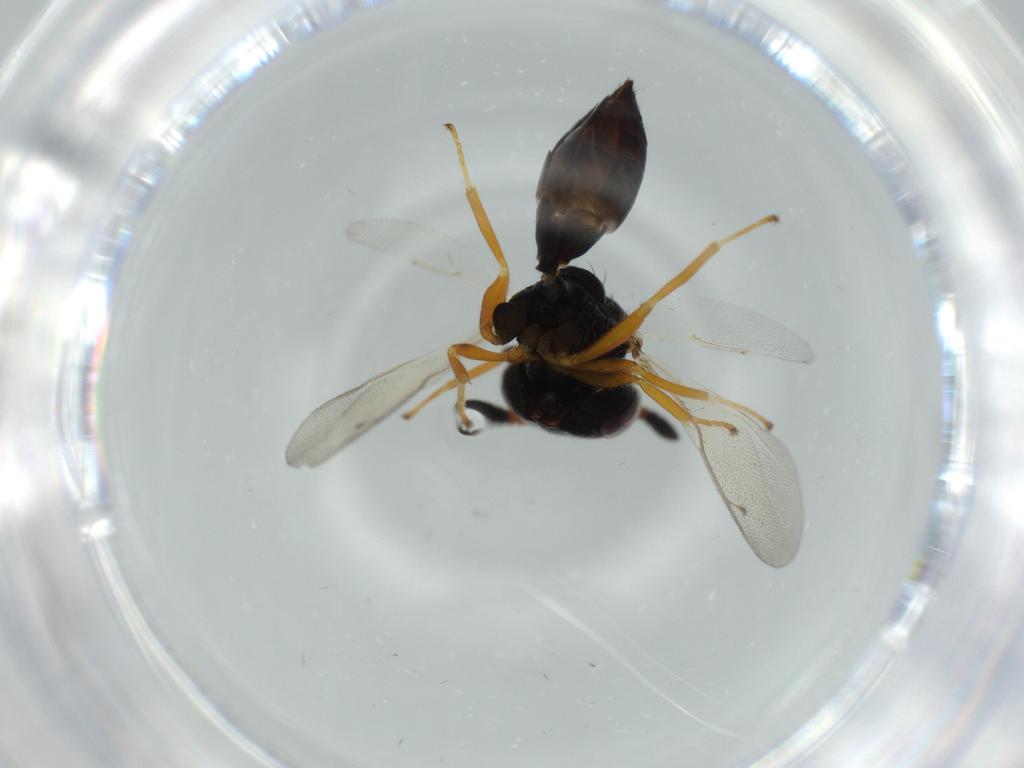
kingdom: Animalia
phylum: Arthropoda
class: Insecta
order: Hymenoptera
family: Pteromalidae
